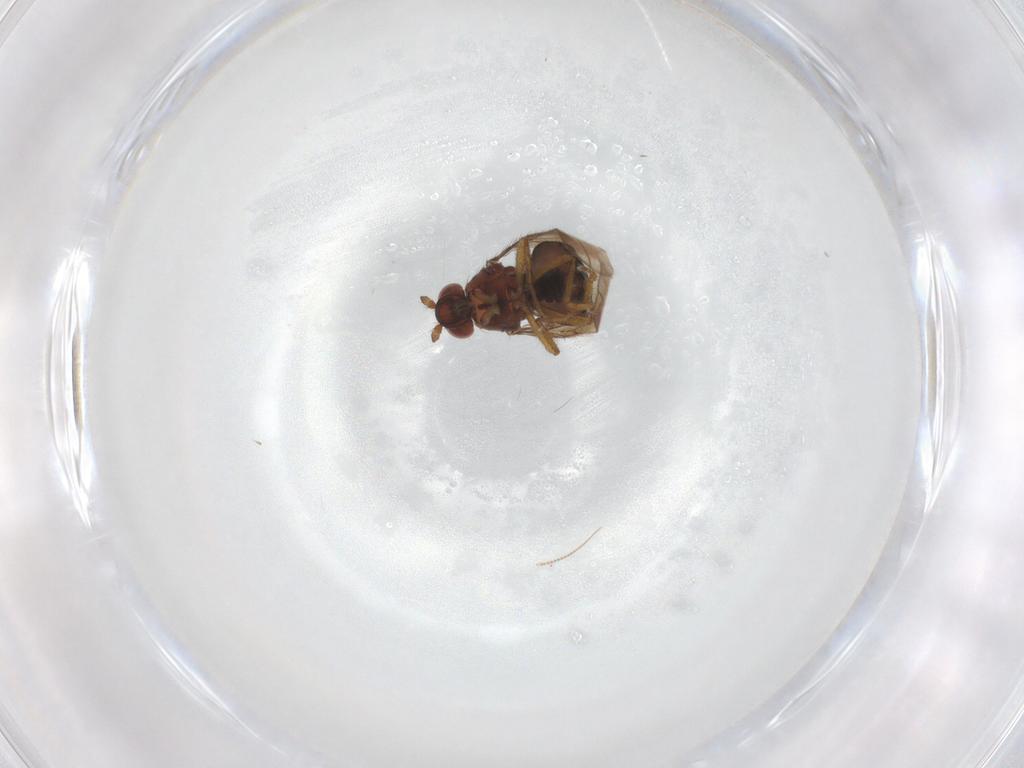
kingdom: Animalia
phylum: Arthropoda
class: Insecta
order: Diptera
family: Sphaeroceridae
